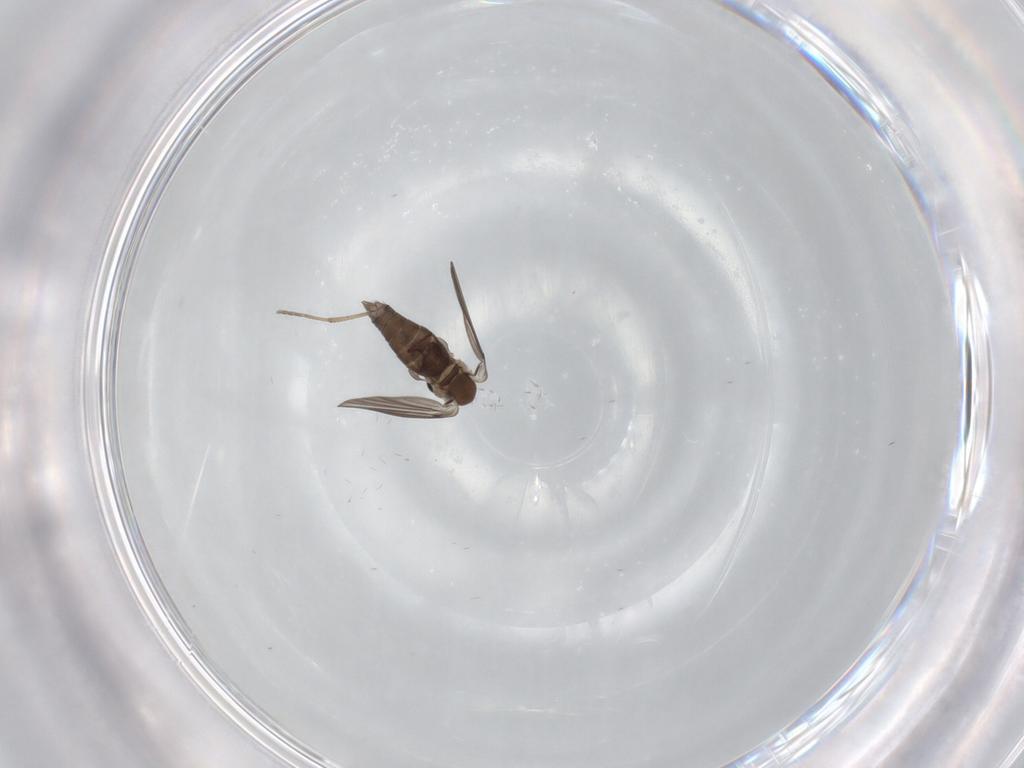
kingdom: Animalia
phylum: Arthropoda
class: Insecta
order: Diptera
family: Psychodidae
